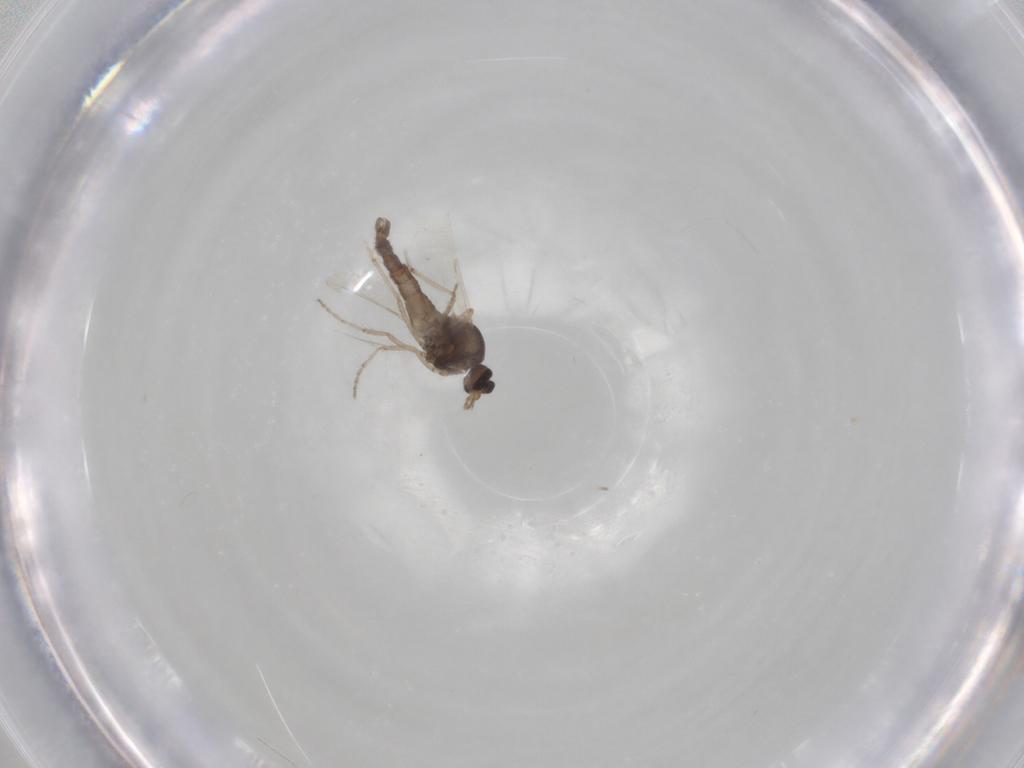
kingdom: Animalia
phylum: Arthropoda
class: Insecta
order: Diptera
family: Ceratopogonidae
